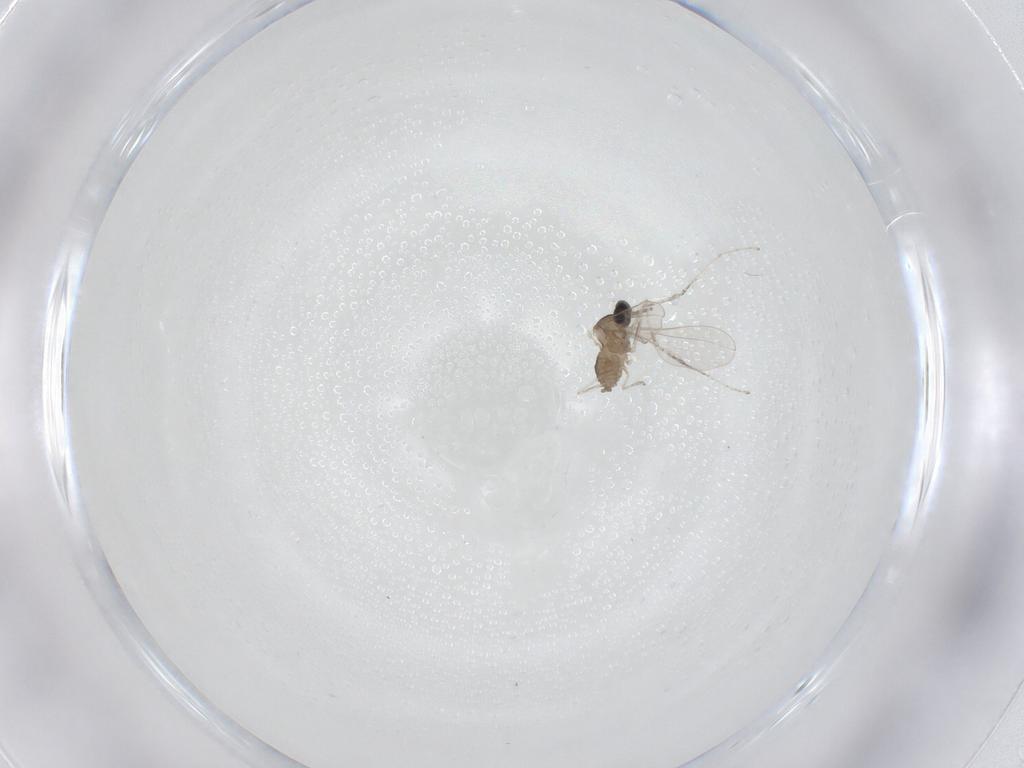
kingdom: Animalia
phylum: Arthropoda
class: Insecta
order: Diptera
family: Cecidomyiidae
